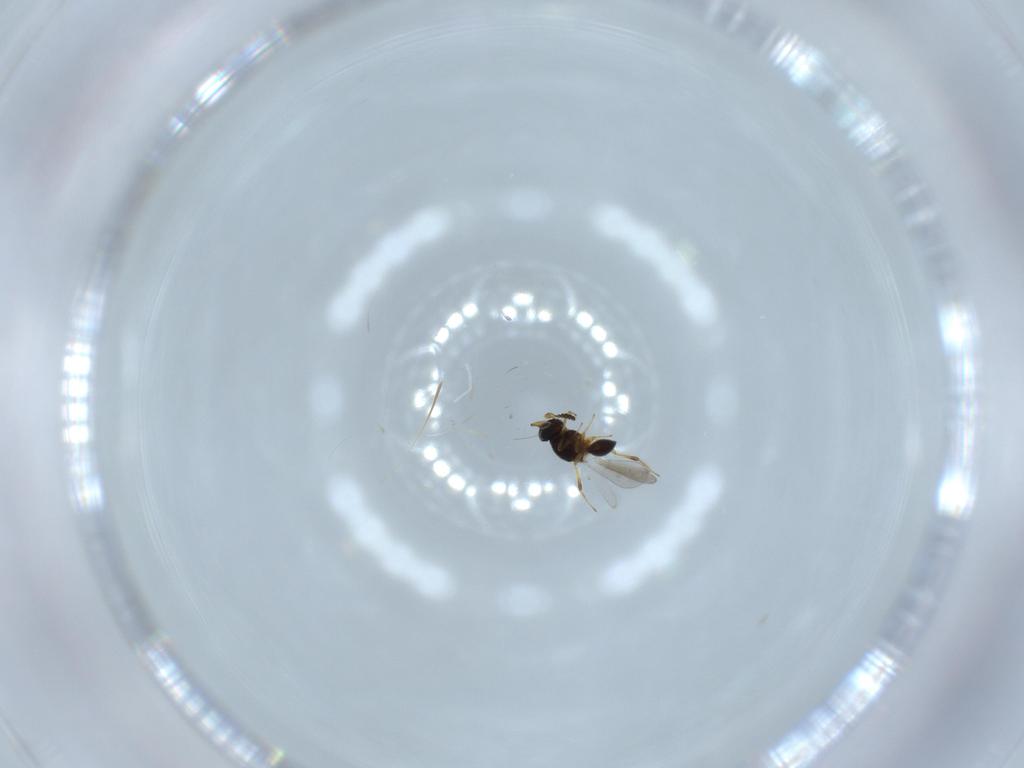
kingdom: Animalia
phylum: Arthropoda
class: Insecta
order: Hymenoptera
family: Platygastridae
